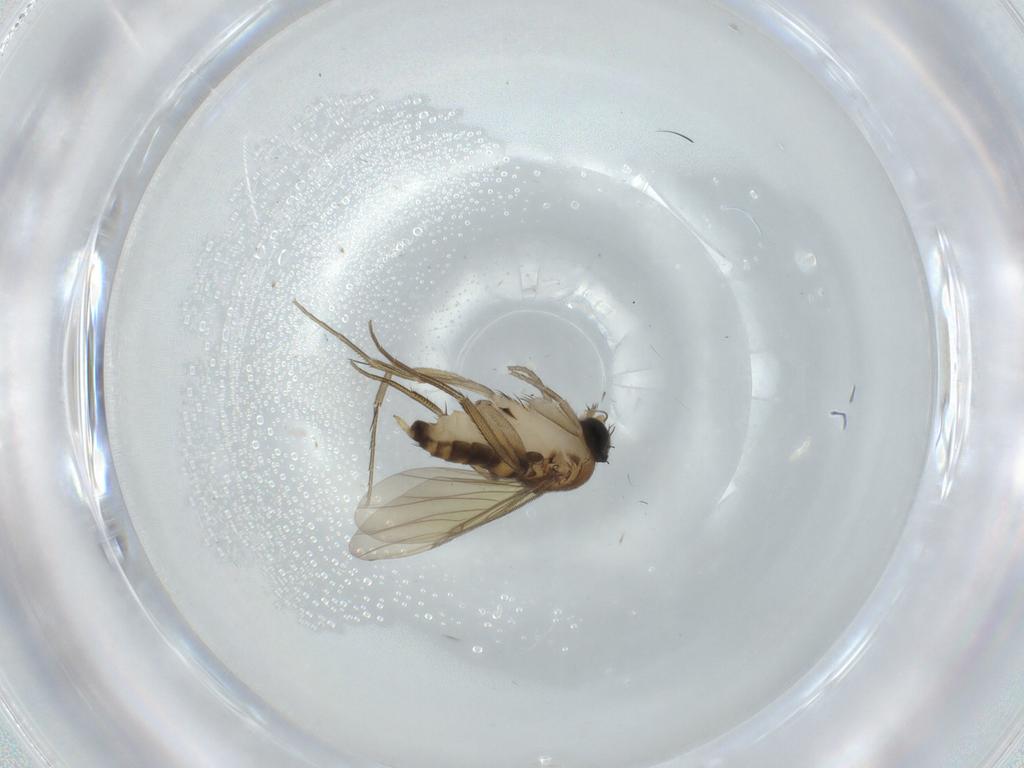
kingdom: Animalia
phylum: Arthropoda
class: Insecta
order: Diptera
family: Phoridae
